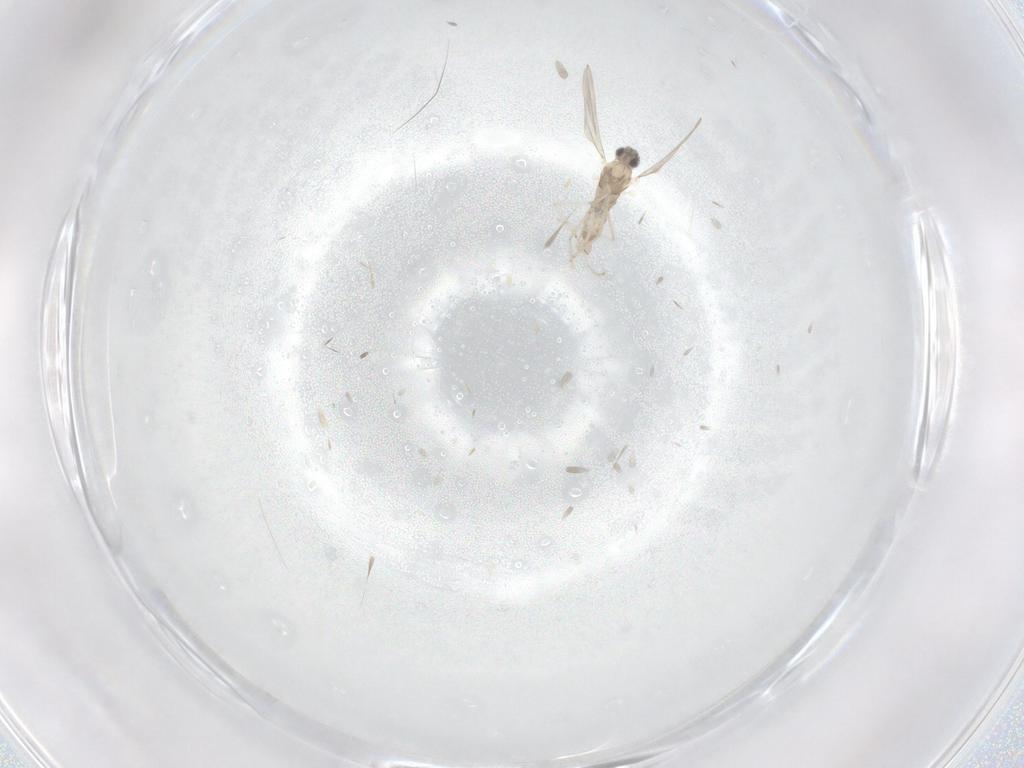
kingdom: Animalia
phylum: Arthropoda
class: Insecta
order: Diptera
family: Cecidomyiidae
